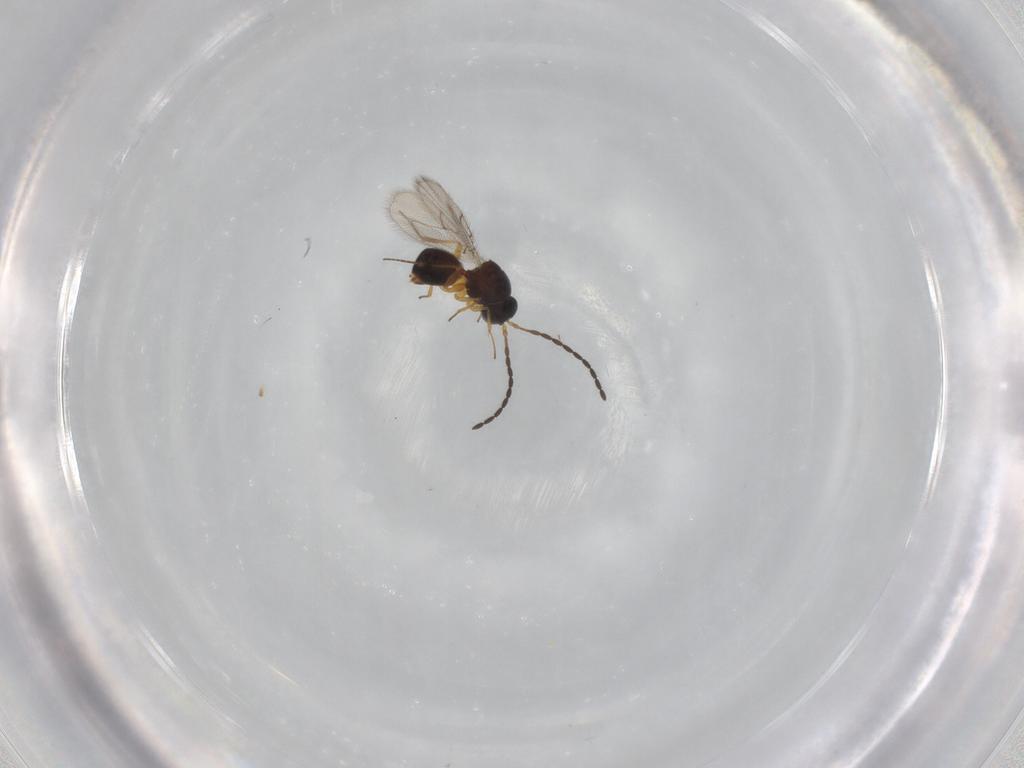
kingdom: Animalia
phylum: Arthropoda
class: Insecta
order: Hymenoptera
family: Figitidae
